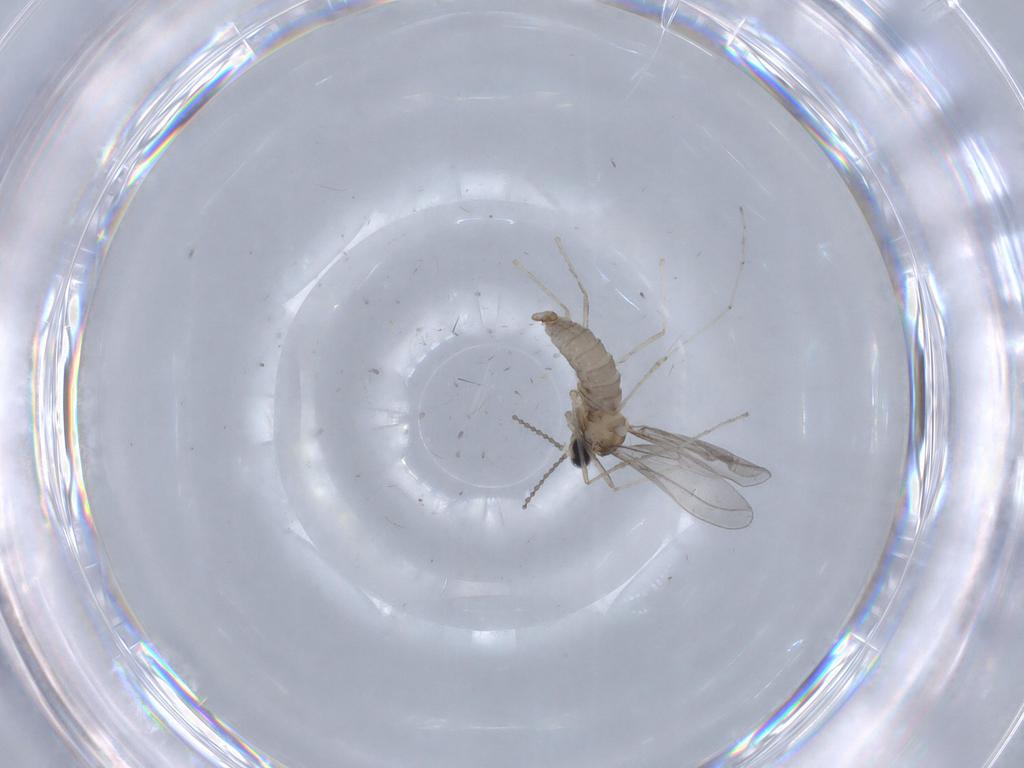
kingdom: Animalia
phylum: Arthropoda
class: Insecta
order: Diptera
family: Cecidomyiidae
